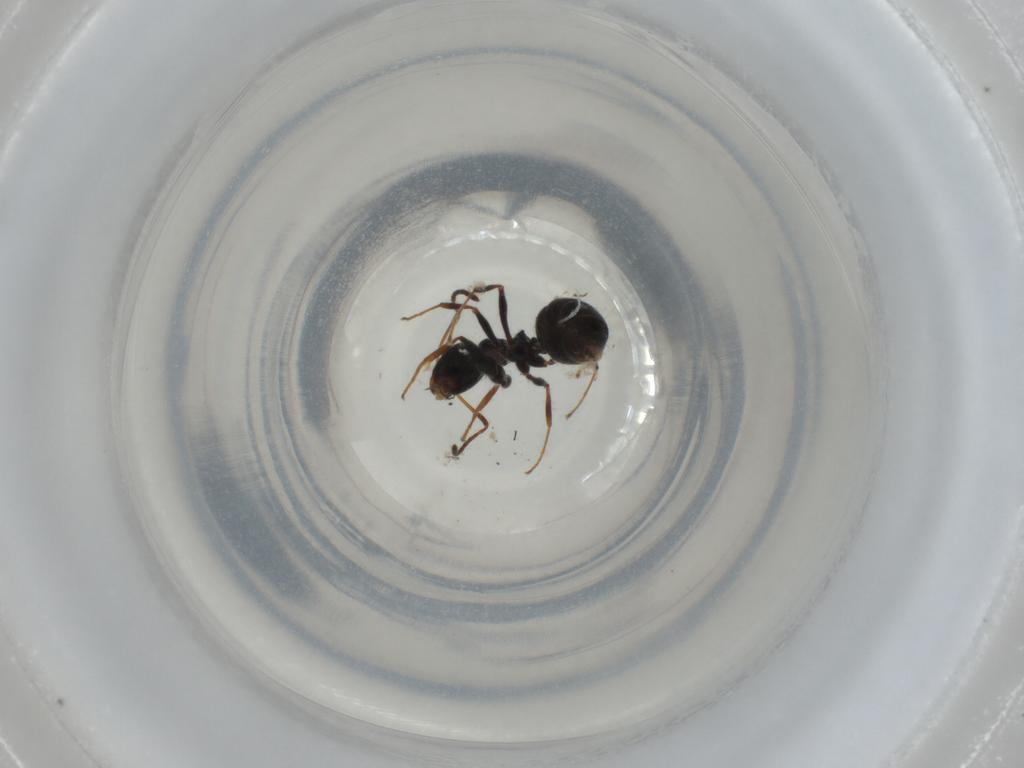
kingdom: Animalia
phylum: Arthropoda
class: Insecta
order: Hymenoptera
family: Formicidae
